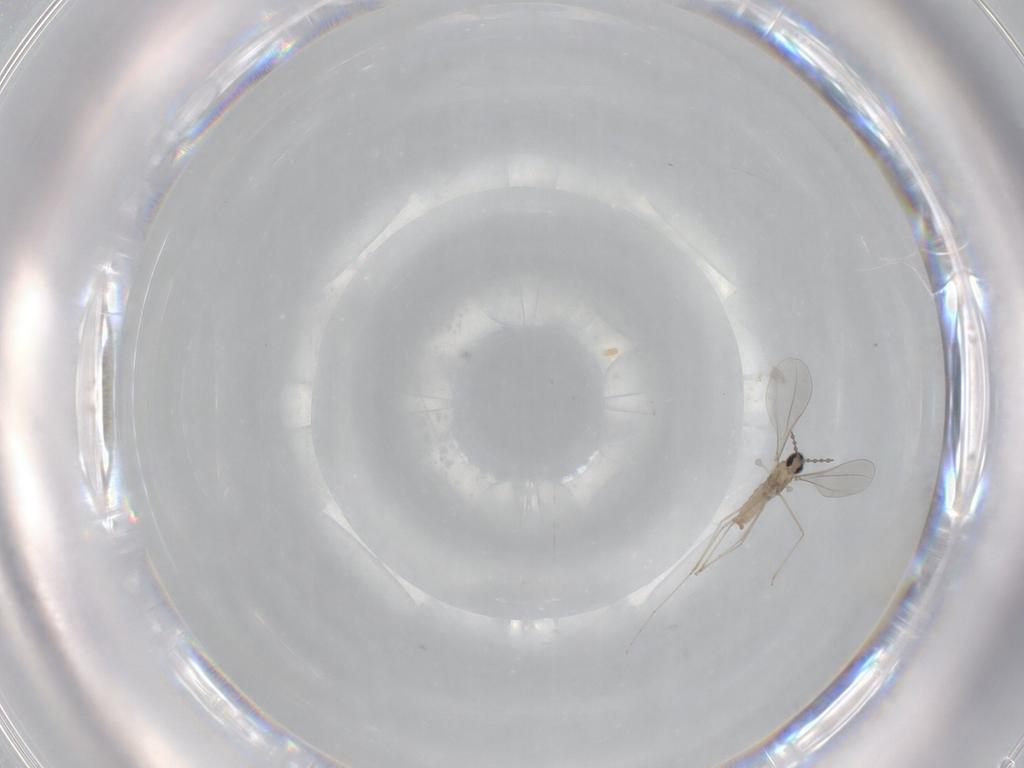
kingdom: Animalia
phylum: Arthropoda
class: Insecta
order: Diptera
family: Cecidomyiidae
